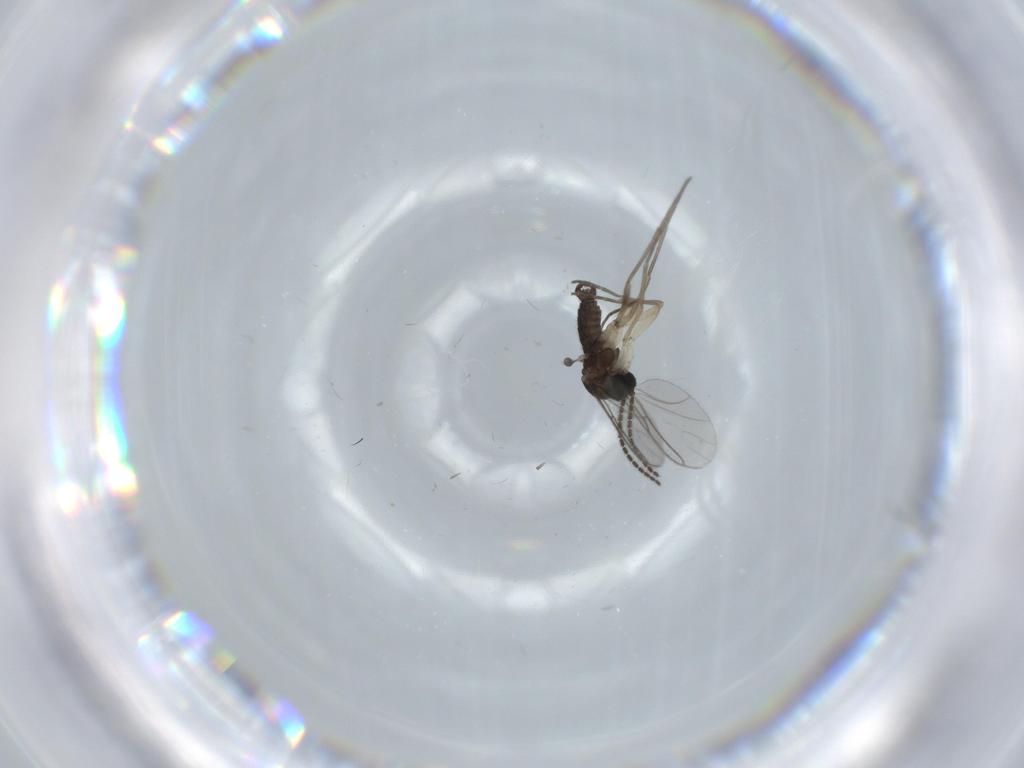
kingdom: Animalia
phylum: Arthropoda
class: Insecta
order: Diptera
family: Sciaridae
